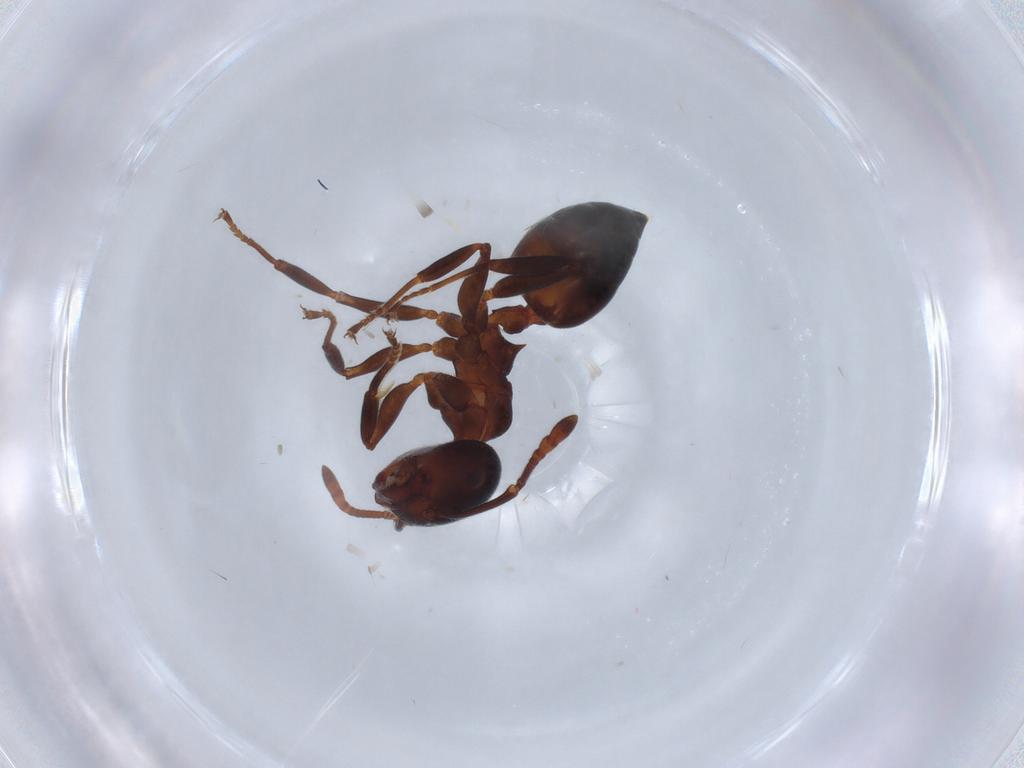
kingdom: Animalia
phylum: Arthropoda
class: Insecta
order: Hymenoptera
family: Formicidae
